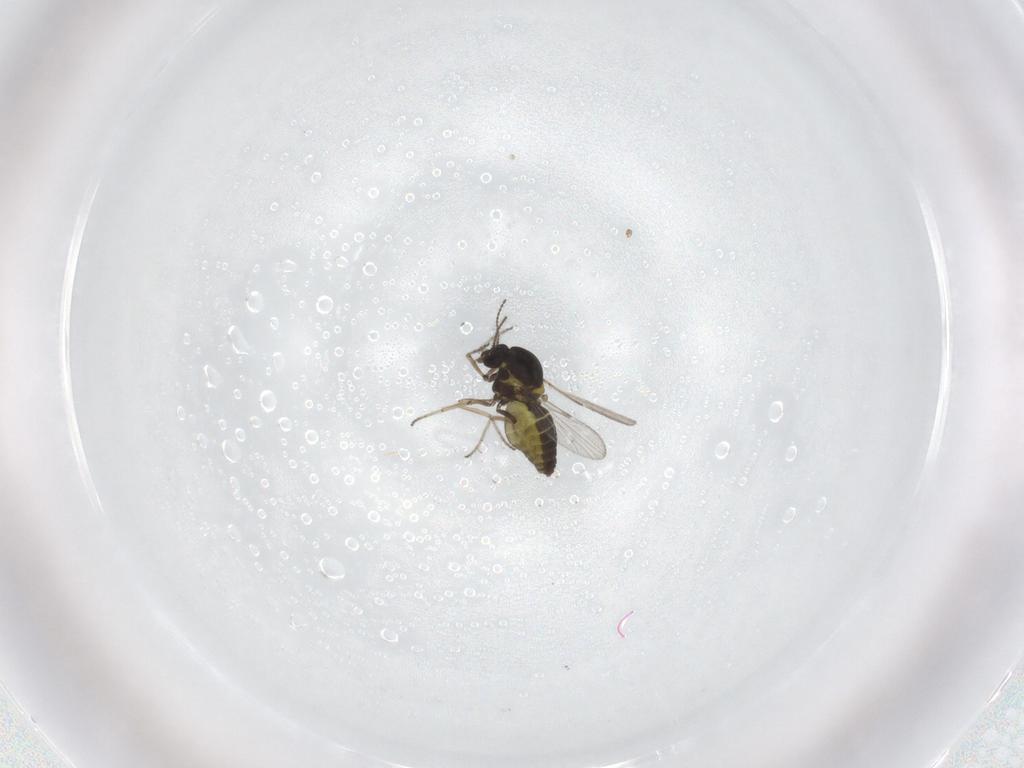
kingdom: Animalia
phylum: Arthropoda
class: Insecta
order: Diptera
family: Ceratopogonidae
